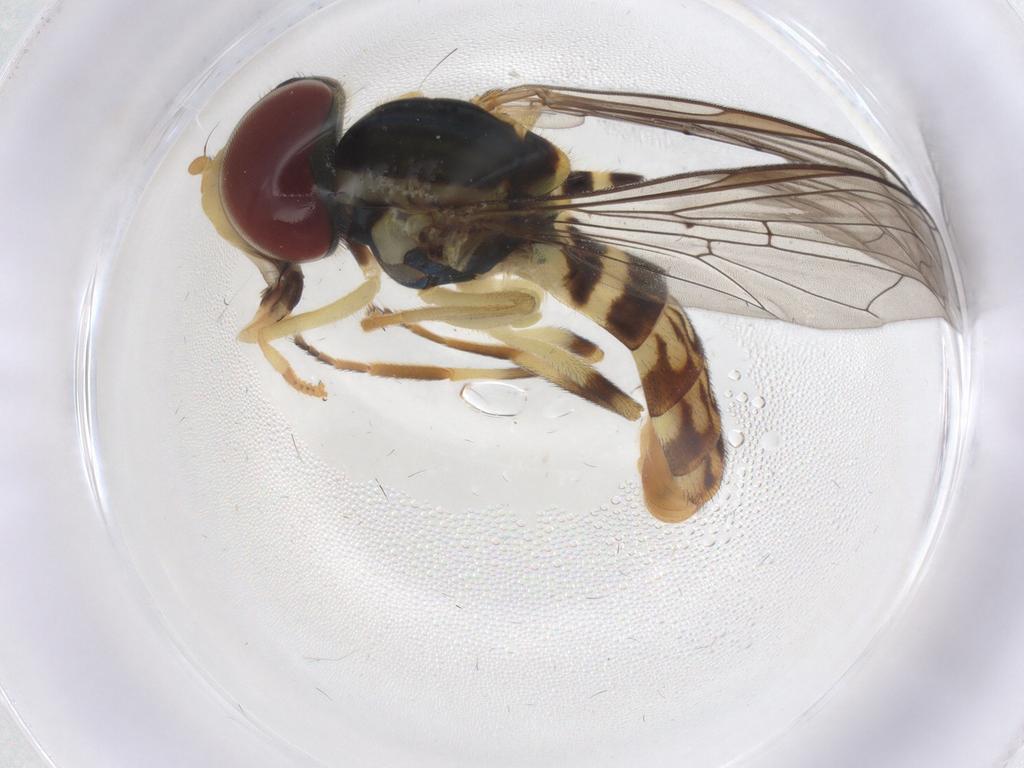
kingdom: Animalia
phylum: Arthropoda
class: Insecta
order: Diptera
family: Syrphidae
